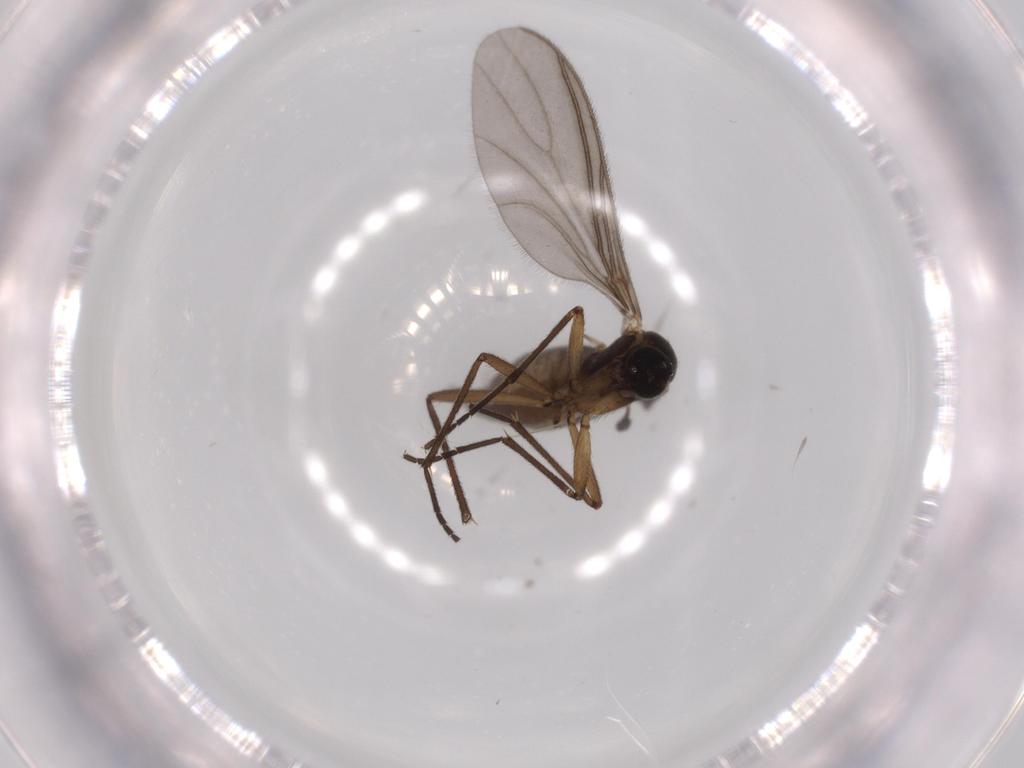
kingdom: Animalia
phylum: Arthropoda
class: Insecta
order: Diptera
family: Sciaridae
